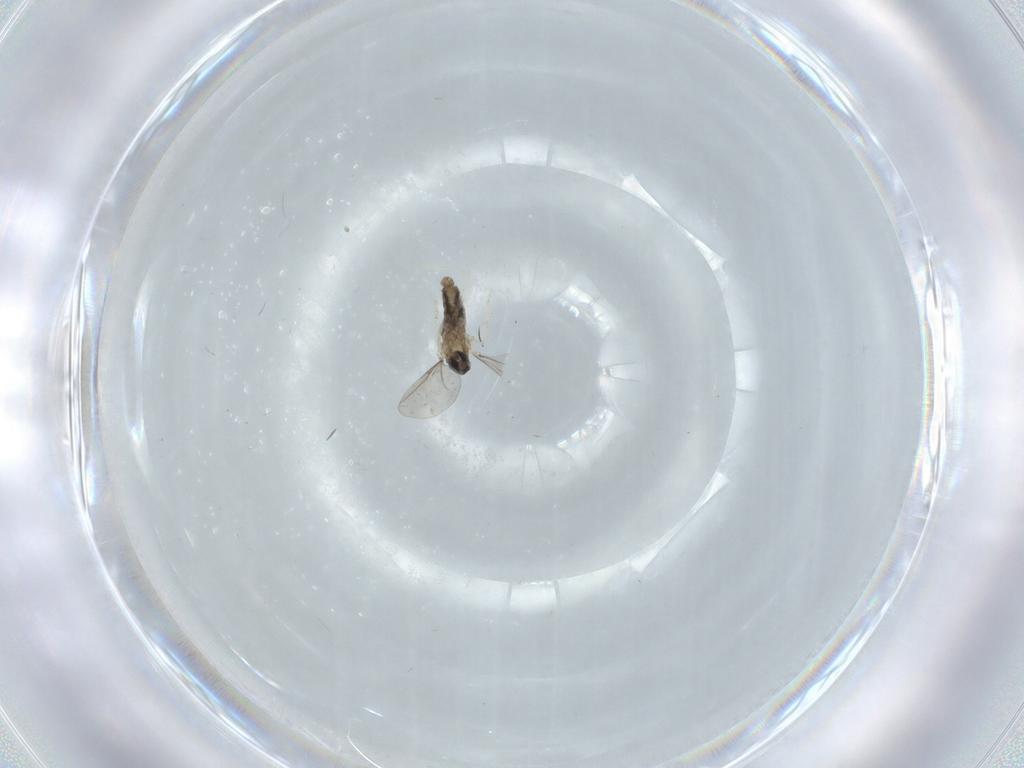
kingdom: Animalia
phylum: Arthropoda
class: Insecta
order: Diptera
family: Cecidomyiidae
